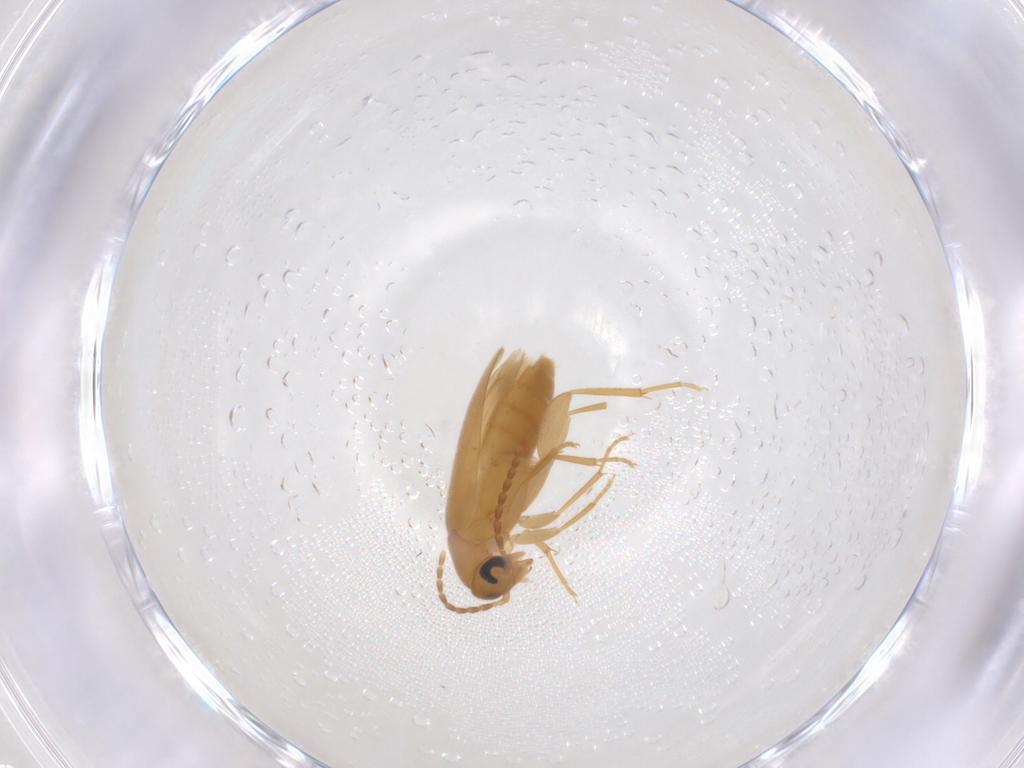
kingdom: Animalia
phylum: Arthropoda
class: Insecta
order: Coleoptera
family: Scraptiidae
